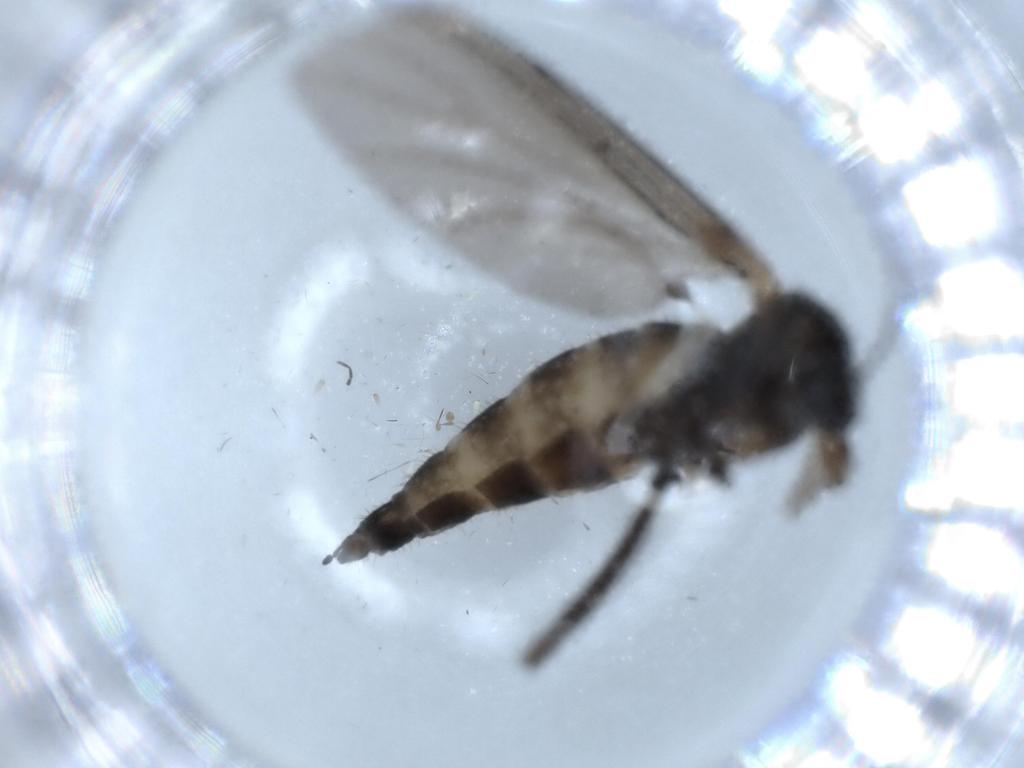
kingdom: Animalia
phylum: Arthropoda
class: Insecta
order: Diptera
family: Sciaridae
